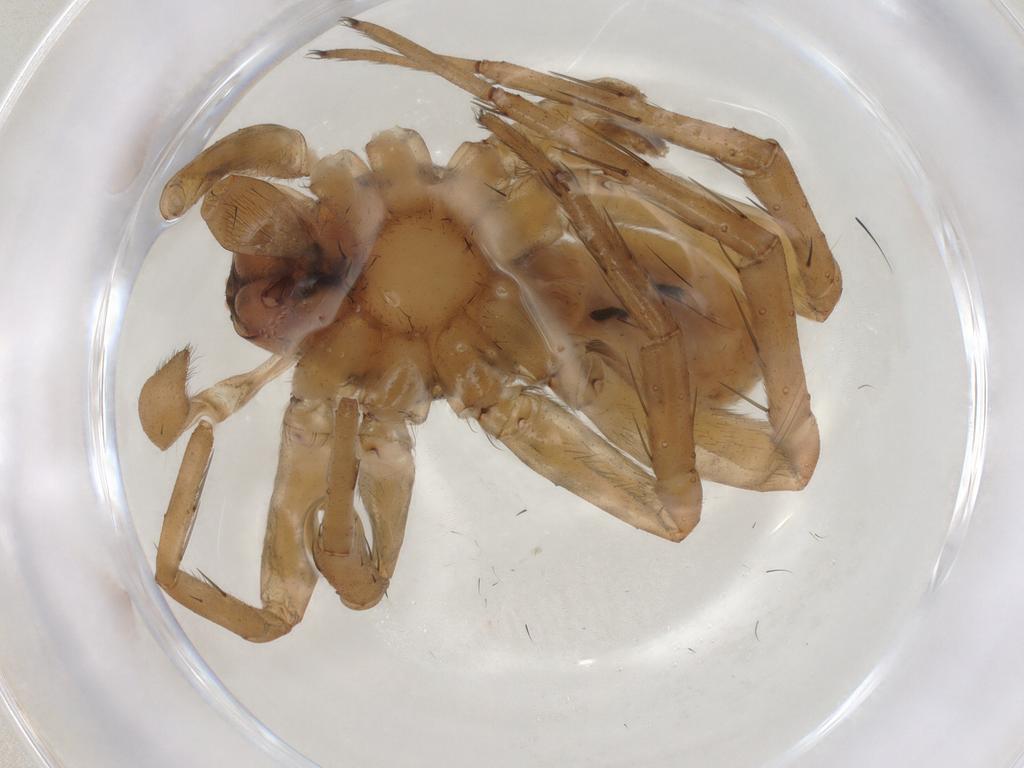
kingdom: Animalia
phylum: Arthropoda
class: Arachnida
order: Araneae
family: Lycosidae
